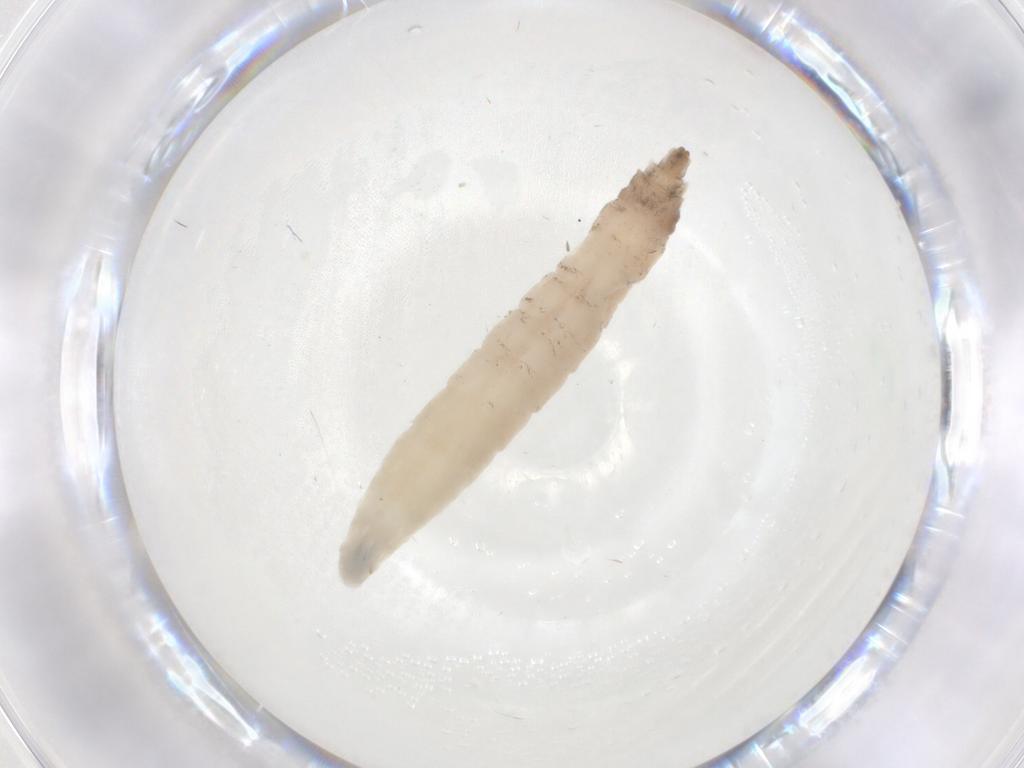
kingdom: Animalia
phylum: Arthropoda
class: Insecta
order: Diptera
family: Drosophilidae
